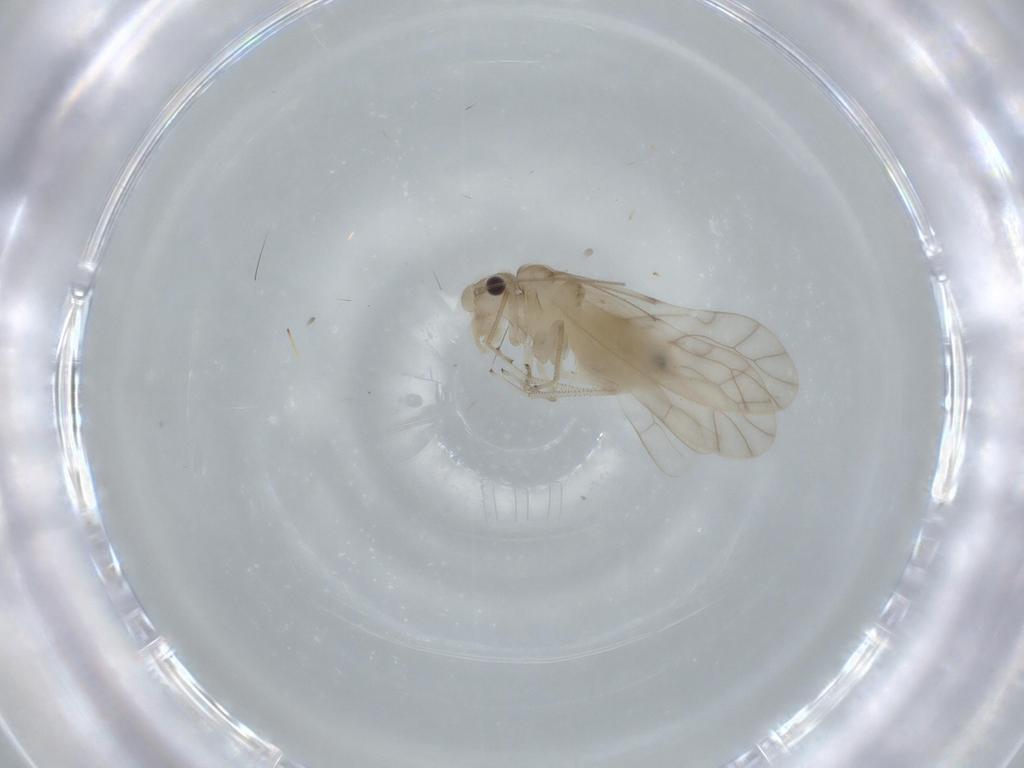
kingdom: Animalia
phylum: Arthropoda
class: Insecta
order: Psocodea
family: Caeciliusidae
